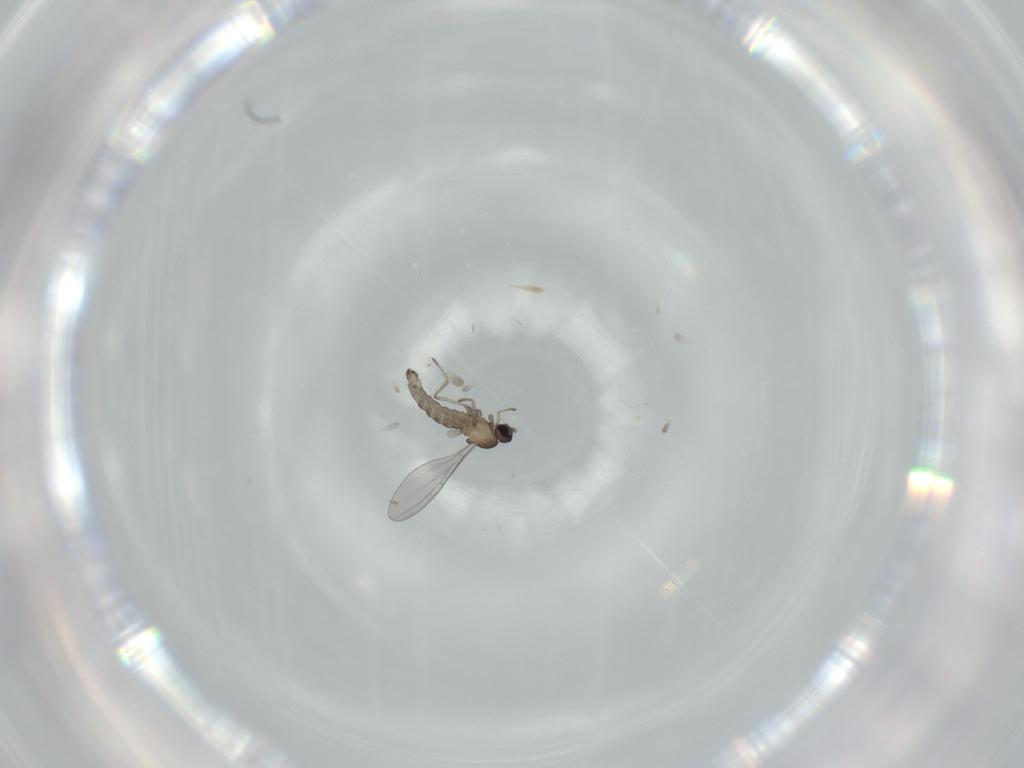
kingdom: Animalia
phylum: Arthropoda
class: Insecta
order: Diptera
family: Cecidomyiidae
